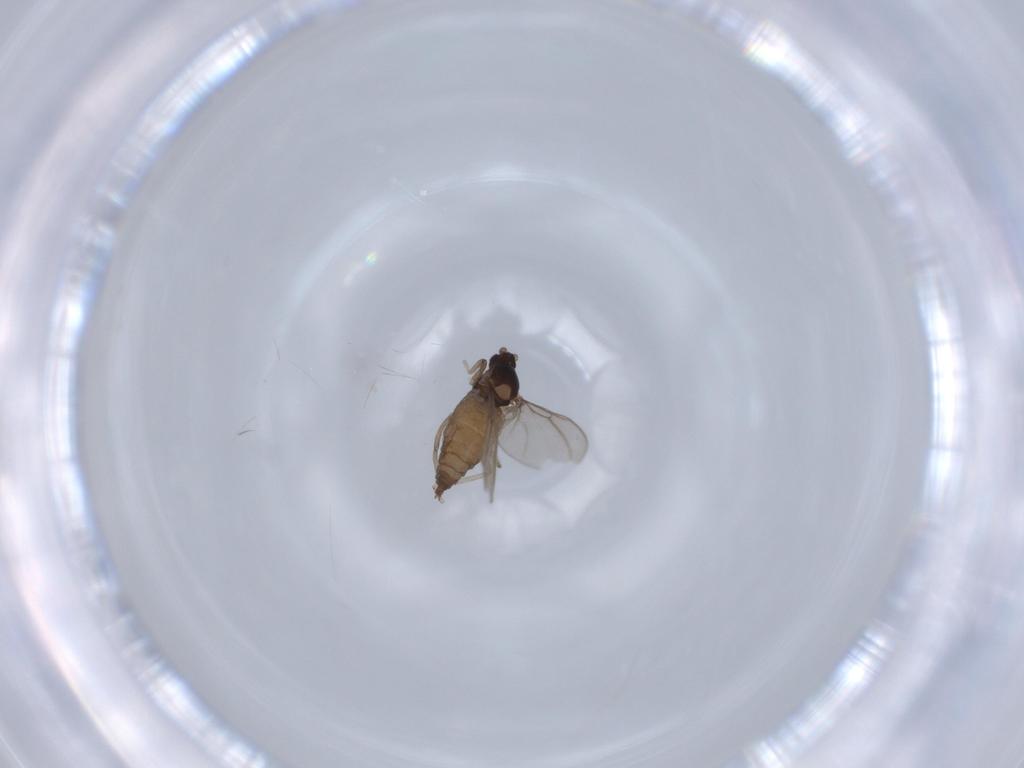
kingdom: Animalia
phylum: Arthropoda
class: Insecta
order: Diptera
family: Cecidomyiidae
